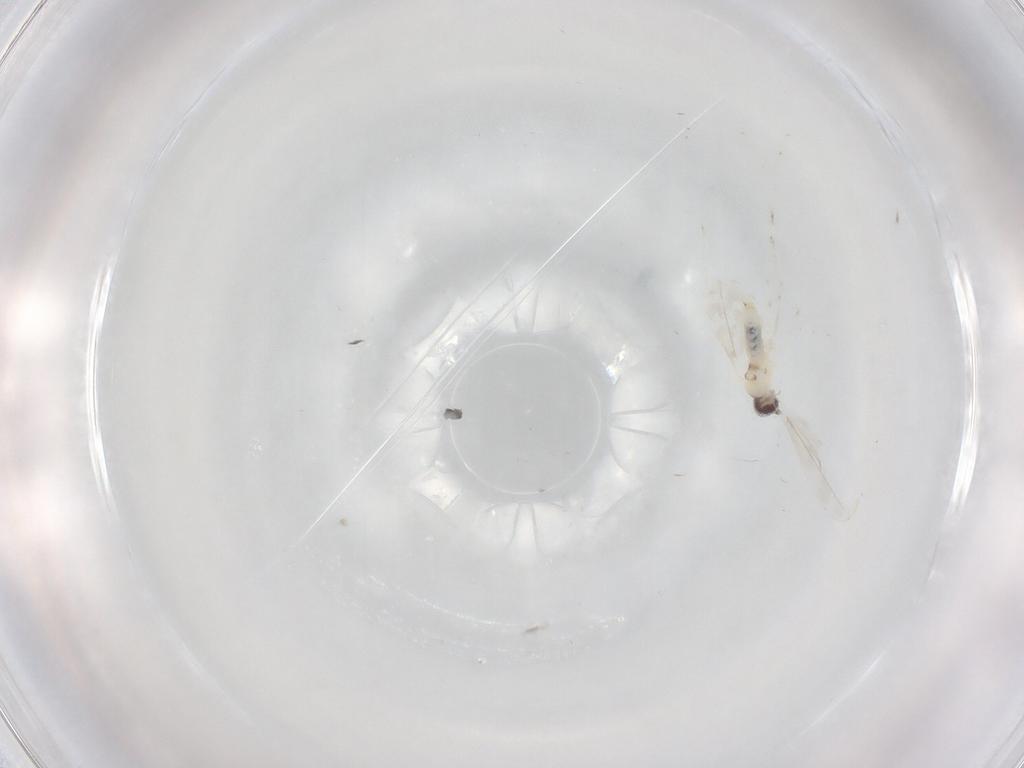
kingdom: Animalia
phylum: Arthropoda
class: Insecta
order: Diptera
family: Cecidomyiidae
